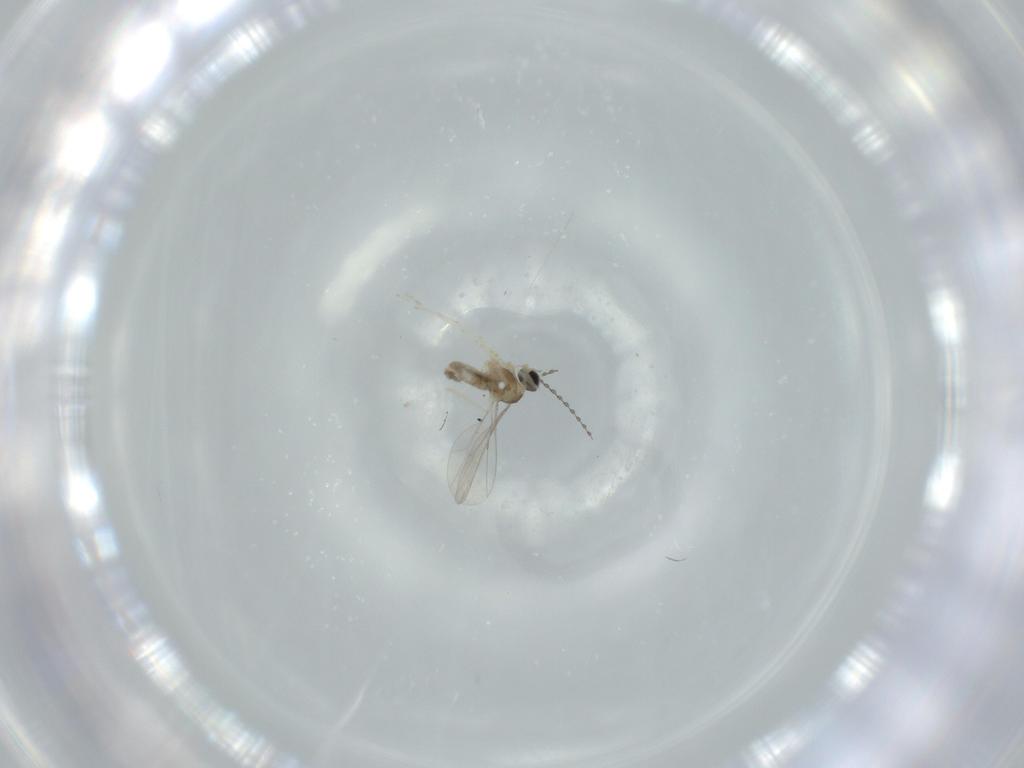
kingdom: Animalia
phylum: Arthropoda
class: Insecta
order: Diptera
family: Cecidomyiidae
